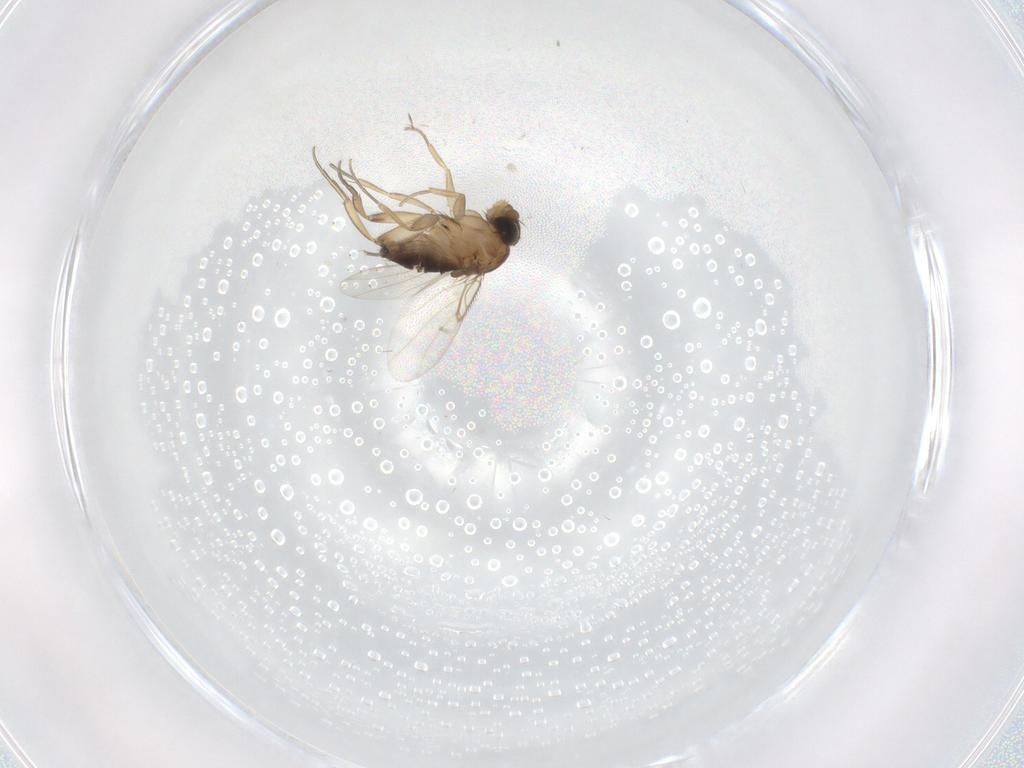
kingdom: Animalia
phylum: Arthropoda
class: Insecta
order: Diptera
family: Phoridae
